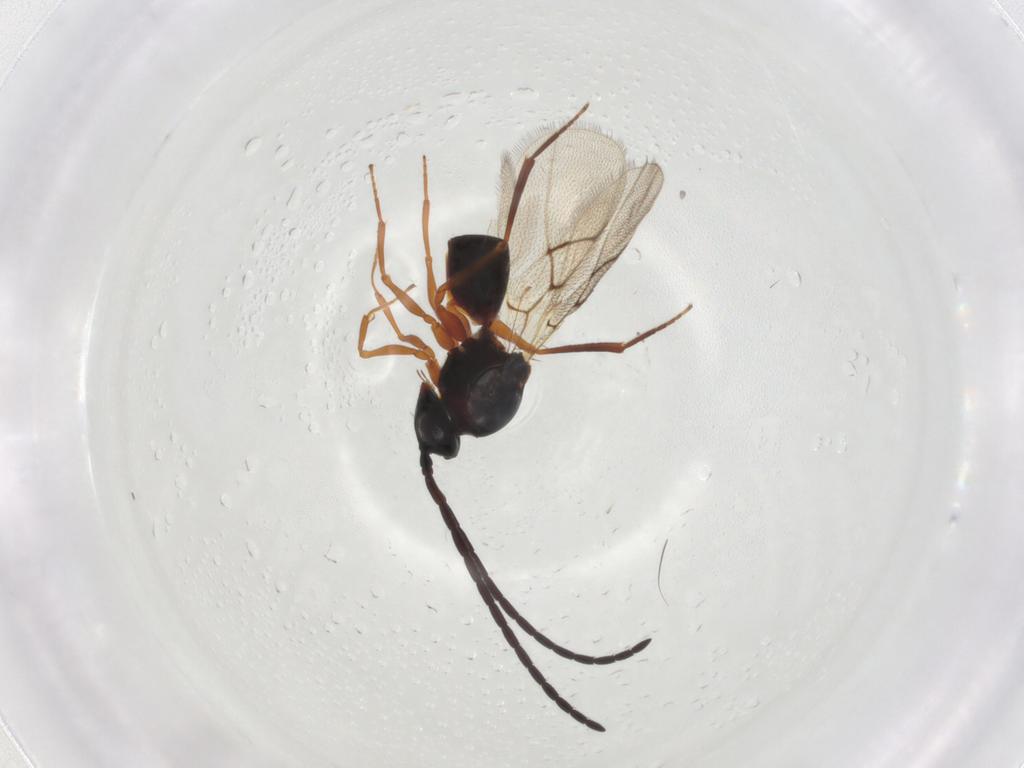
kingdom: Animalia
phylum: Arthropoda
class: Insecta
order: Hymenoptera
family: Figitidae
